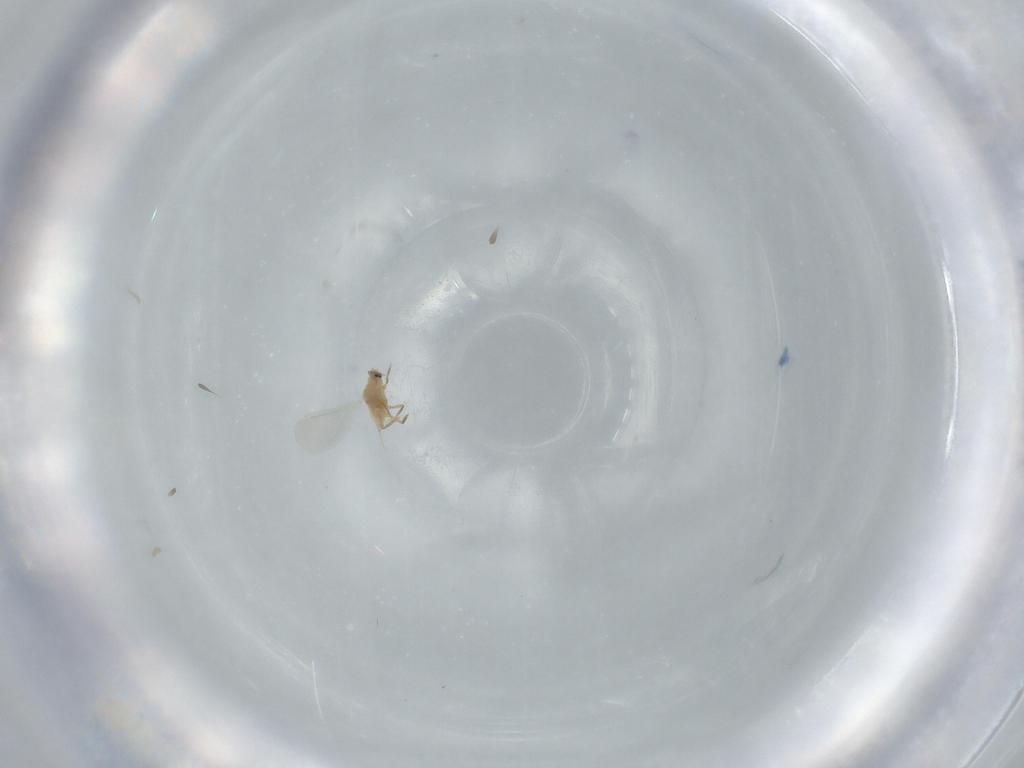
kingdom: Animalia
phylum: Arthropoda
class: Insecta
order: Hemiptera
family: Diaspididae
